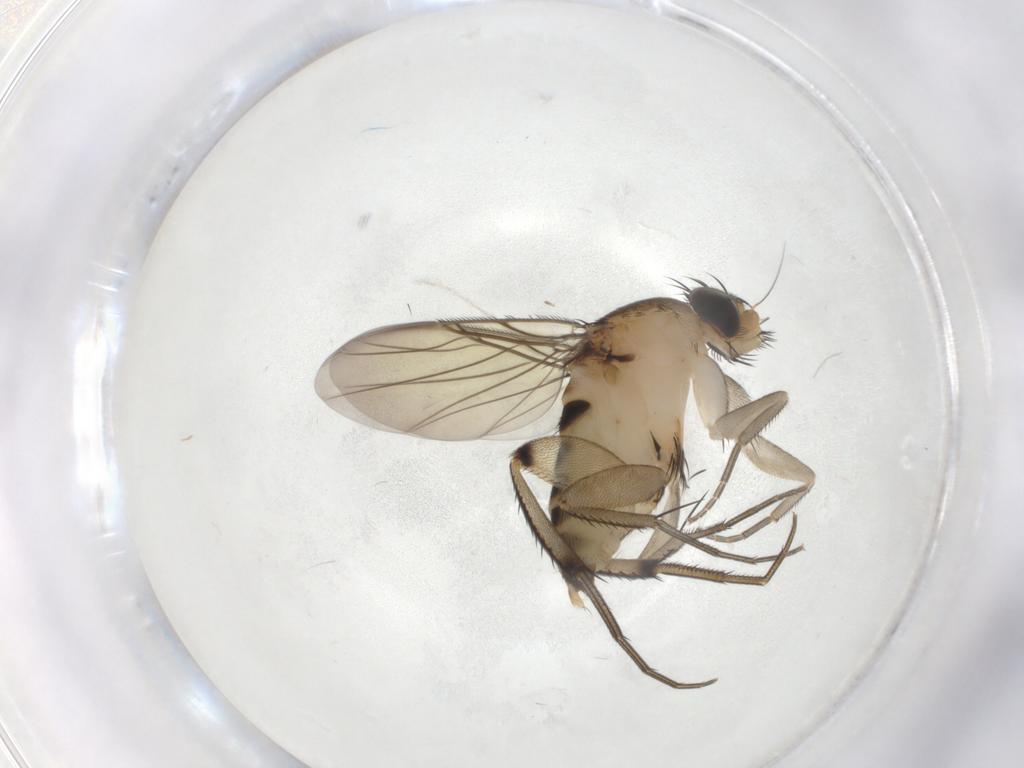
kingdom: Animalia
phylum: Arthropoda
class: Insecta
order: Diptera
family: Phoridae
